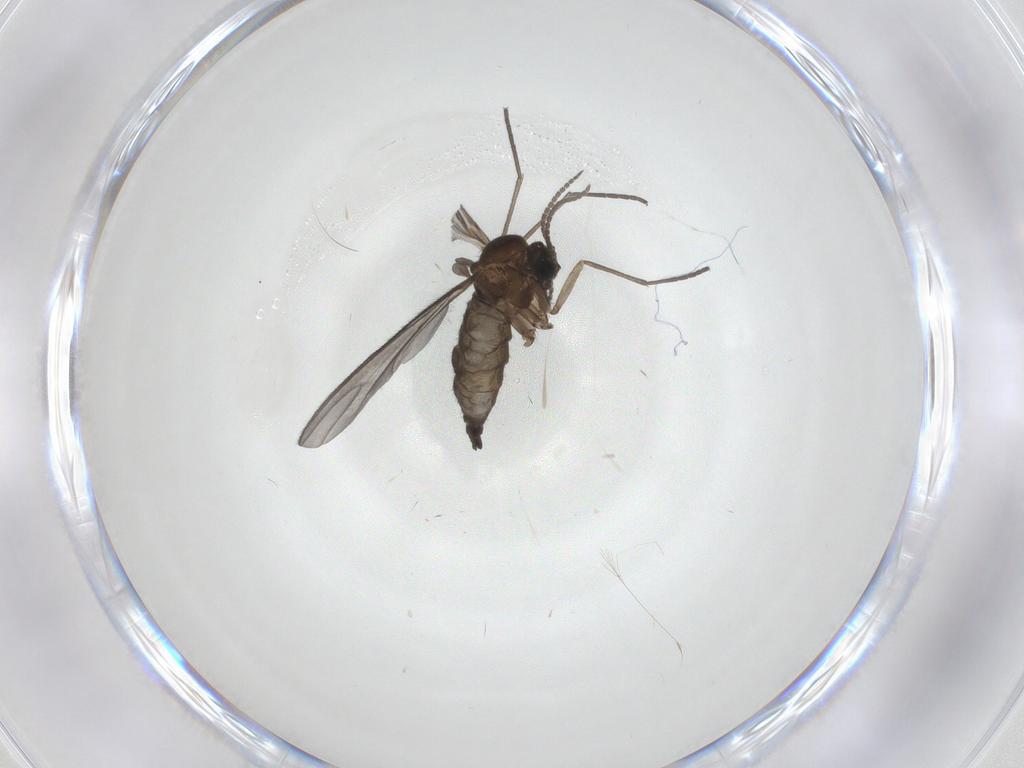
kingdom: Animalia
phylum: Arthropoda
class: Insecta
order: Diptera
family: Sciaridae
